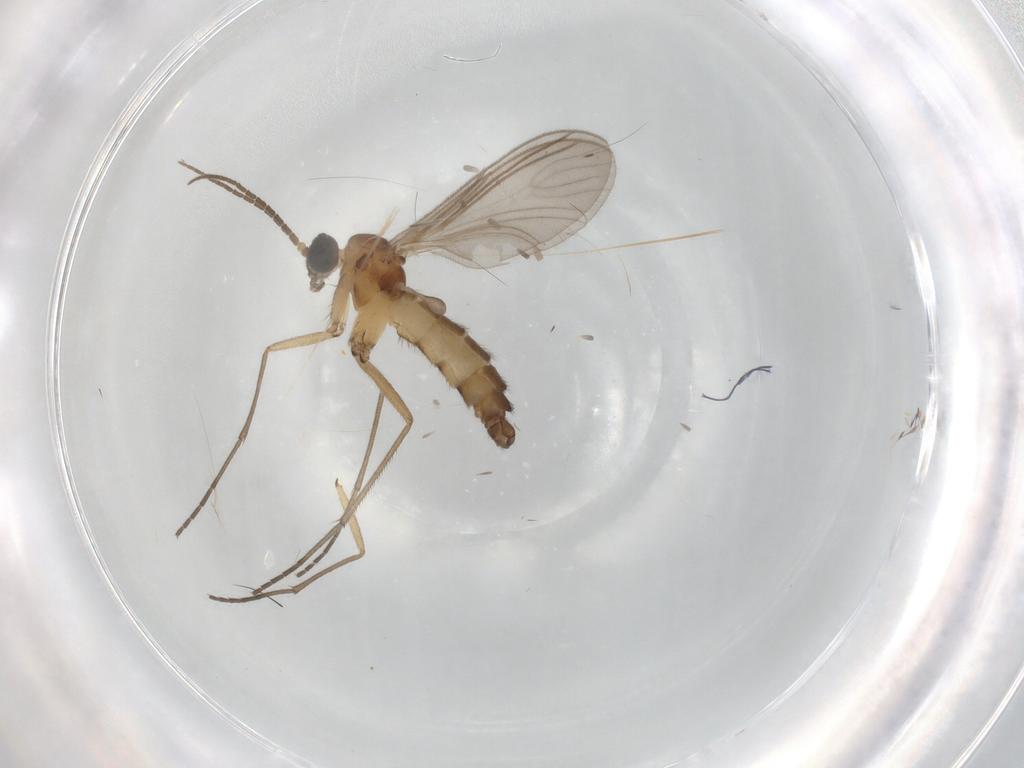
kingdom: Animalia
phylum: Arthropoda
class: Insecta
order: Diptera
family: Sciaridae
